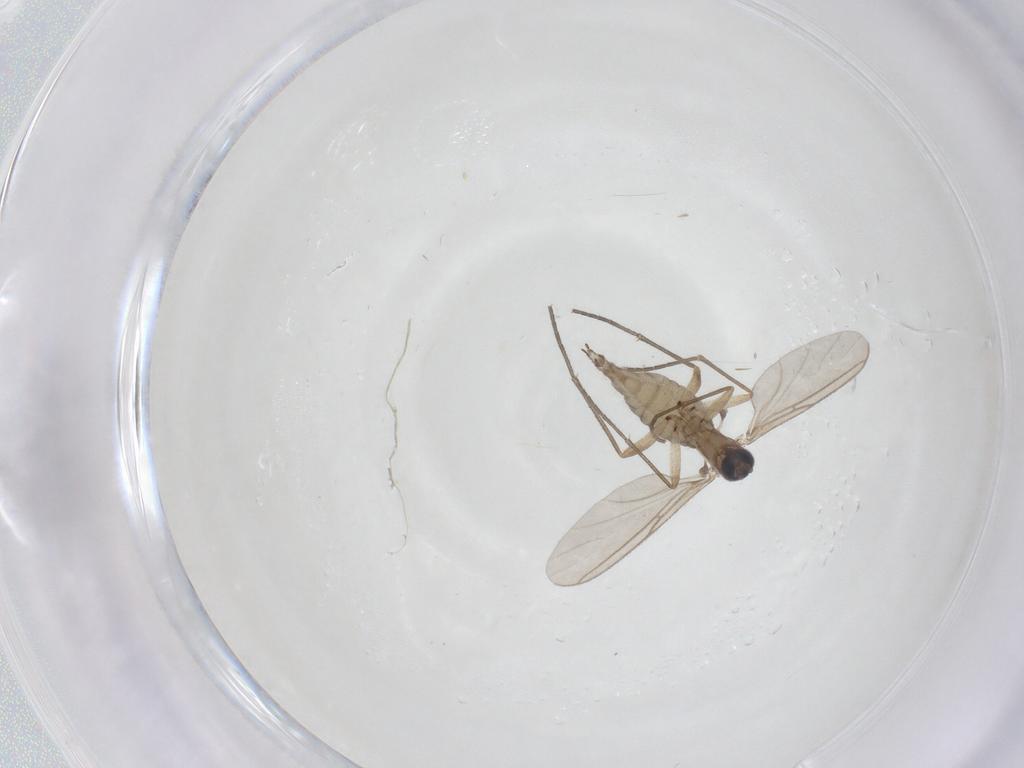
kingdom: Animalia
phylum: Arthropoda
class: Insecta
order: Diptera
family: Sciaridae
